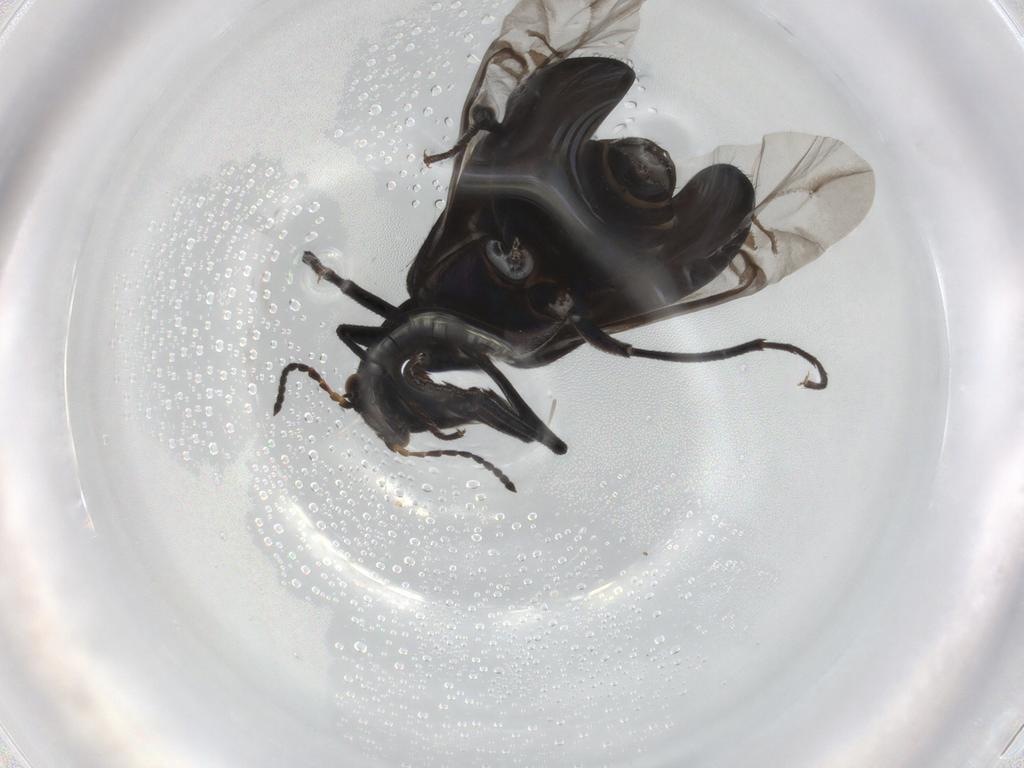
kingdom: Animalia
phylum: Arthropoda
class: Insecta
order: Coleoptera
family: Melyridae
